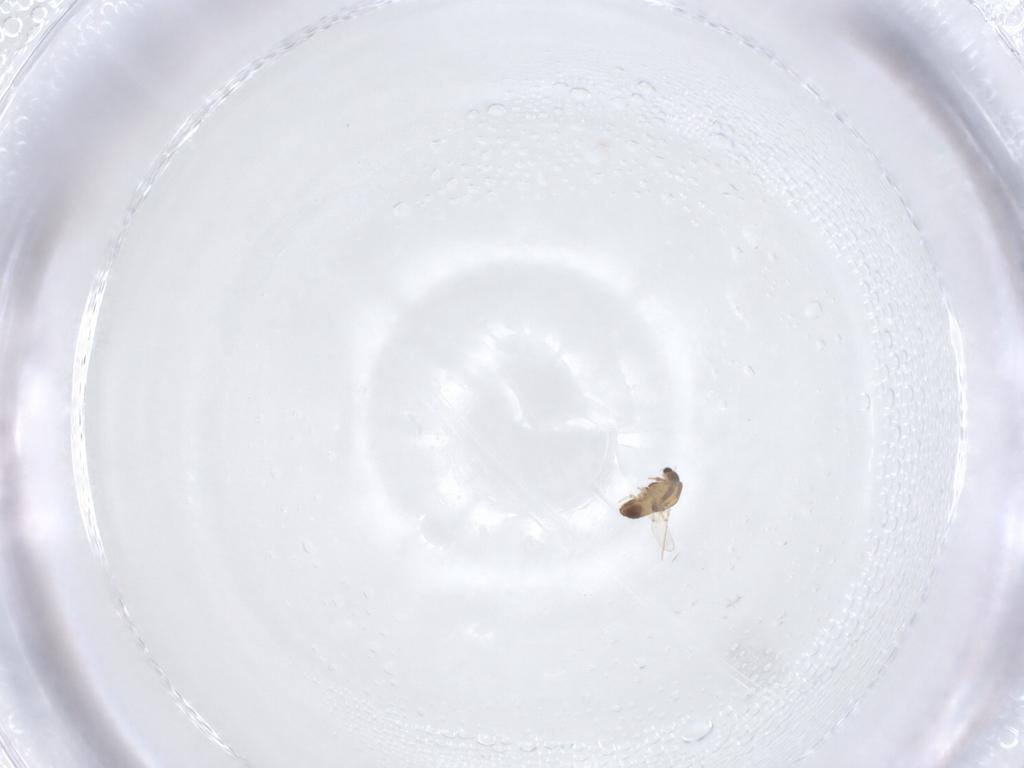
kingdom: Animalia
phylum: Arthropoda
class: Insecta
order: Diptera
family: Chironomidae
